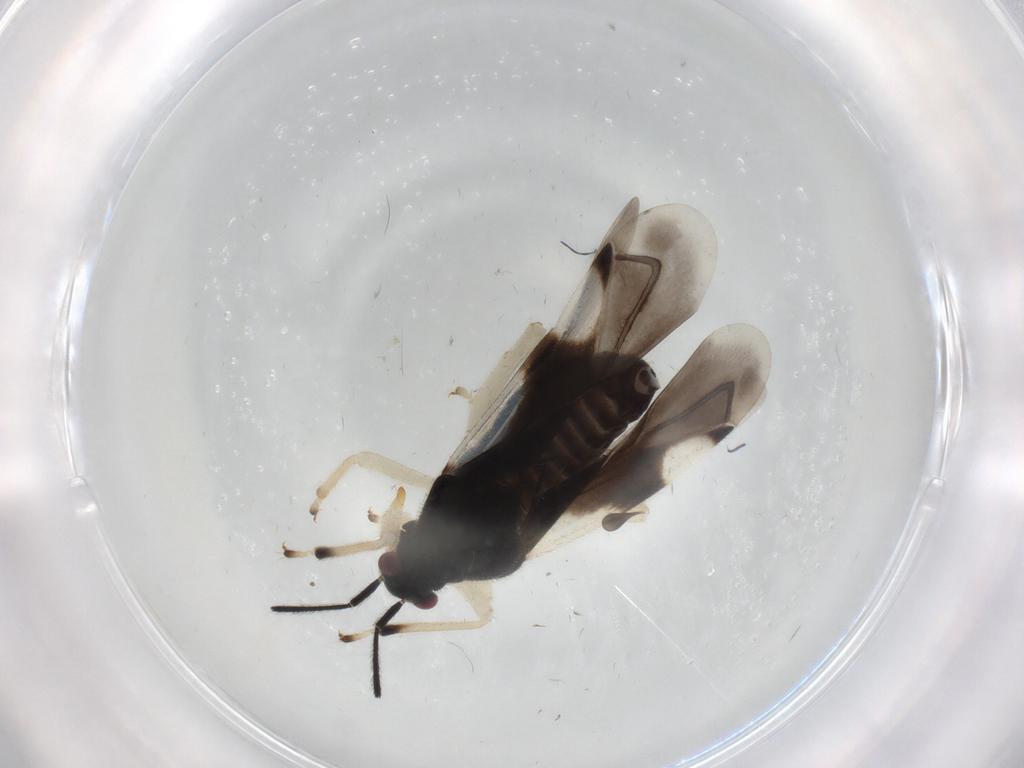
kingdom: Animalia
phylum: Arthropoda
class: Insecta
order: Hemiptera
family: Miridae
